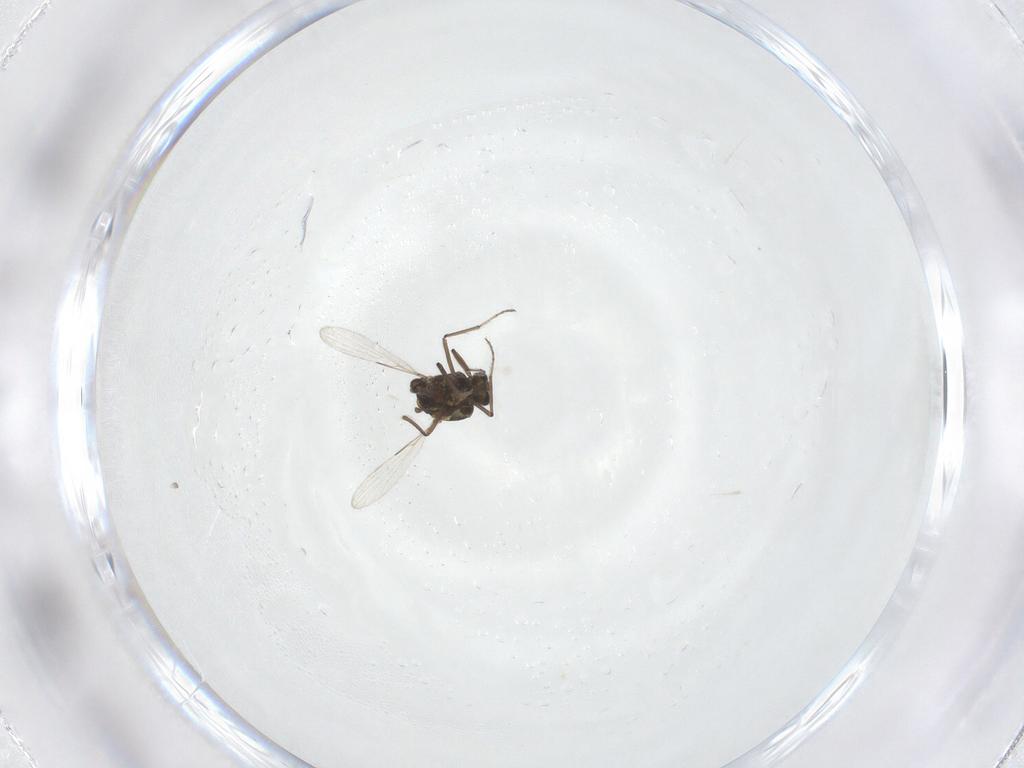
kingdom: Animalia
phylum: Arthropoda
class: Insecta
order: Diptera
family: Ceratopogonidae
